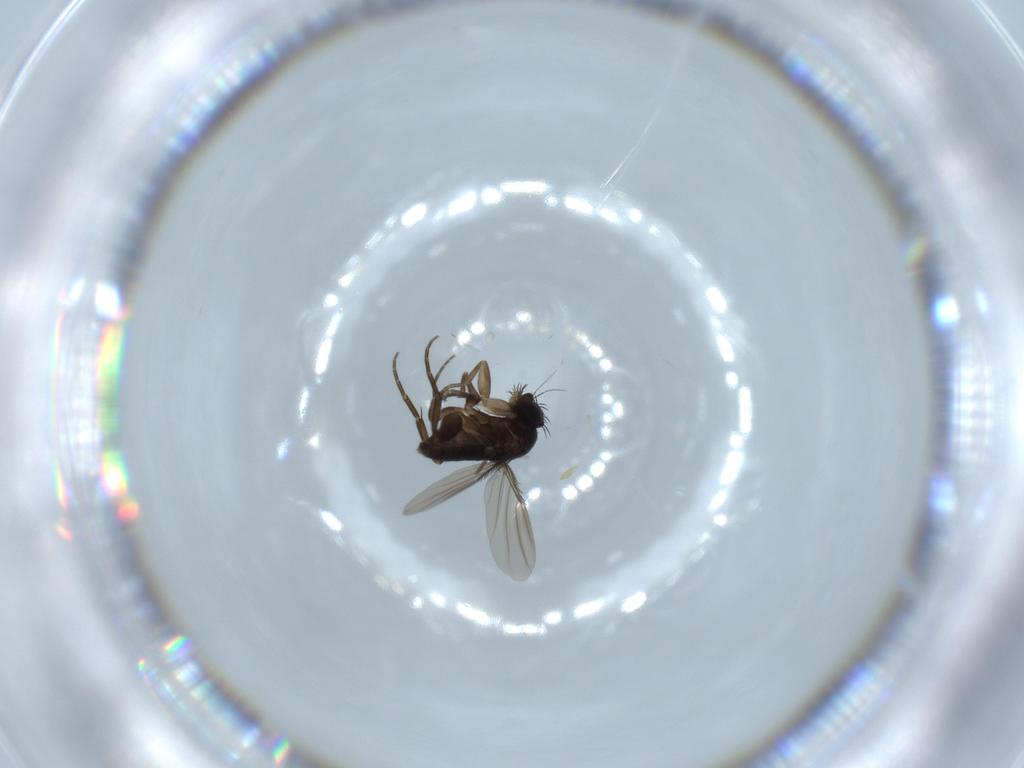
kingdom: Animalia
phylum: Arthropoda
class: Insecta
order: Diptera
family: Phoridae
